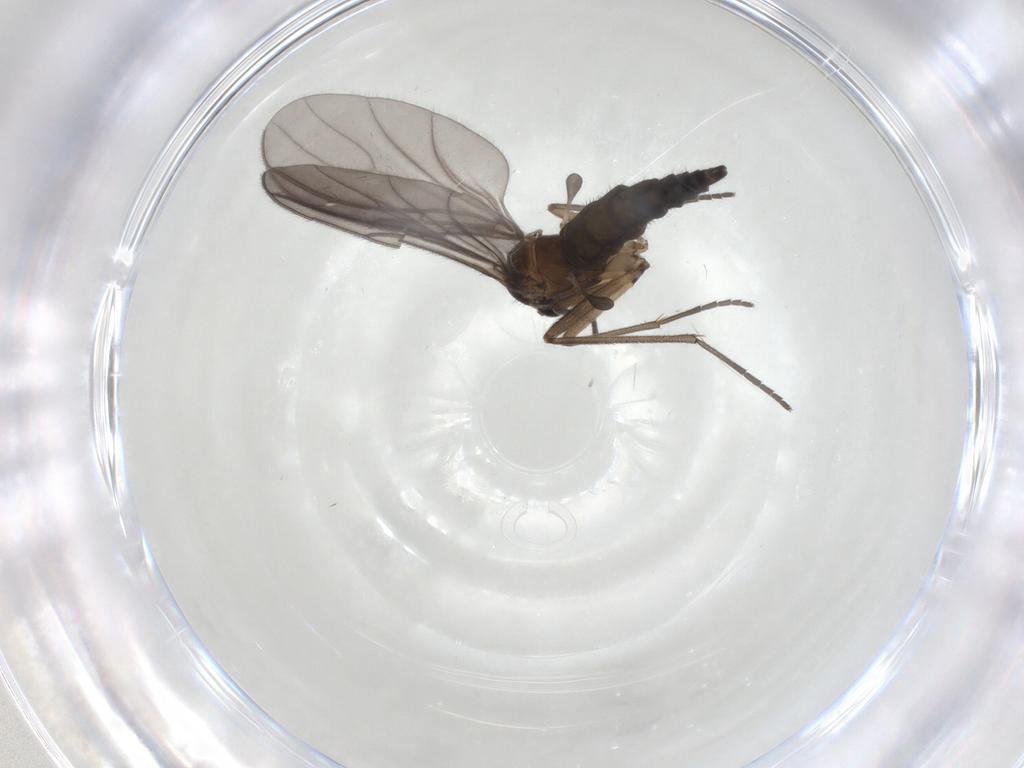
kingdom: Animalia
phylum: Arthropoda
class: Insecta
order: Diptera
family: Sciaridae
